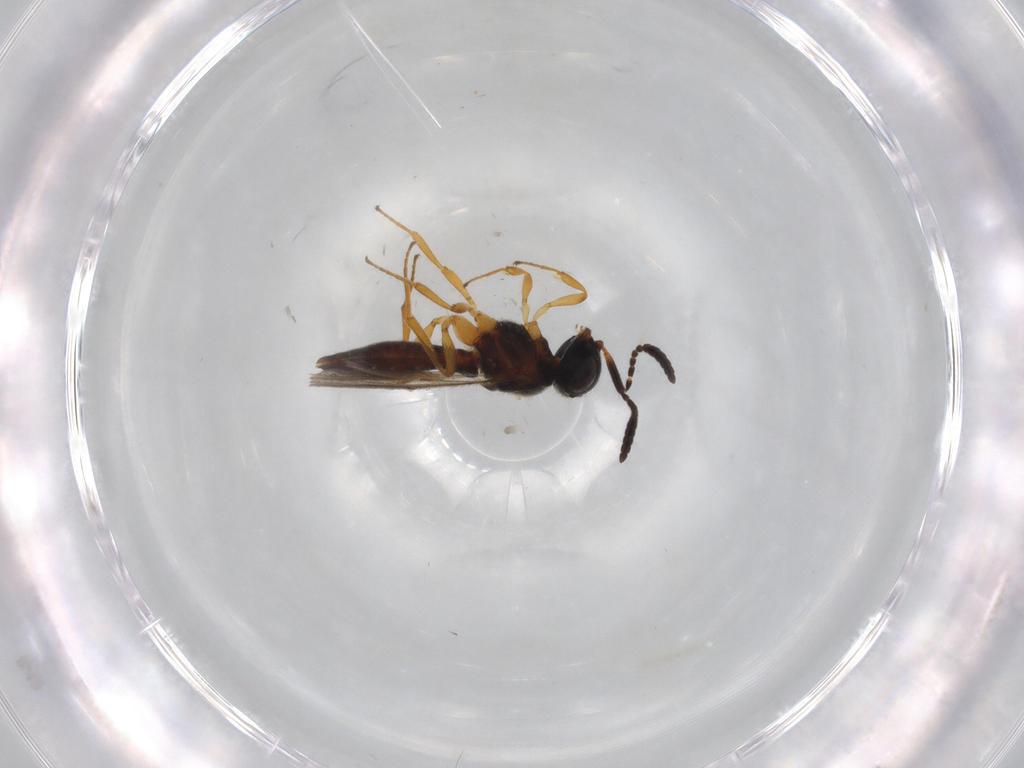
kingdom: Animalia
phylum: Arthropoda
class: Insecta
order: Hymenoptera
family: Scelionidae
